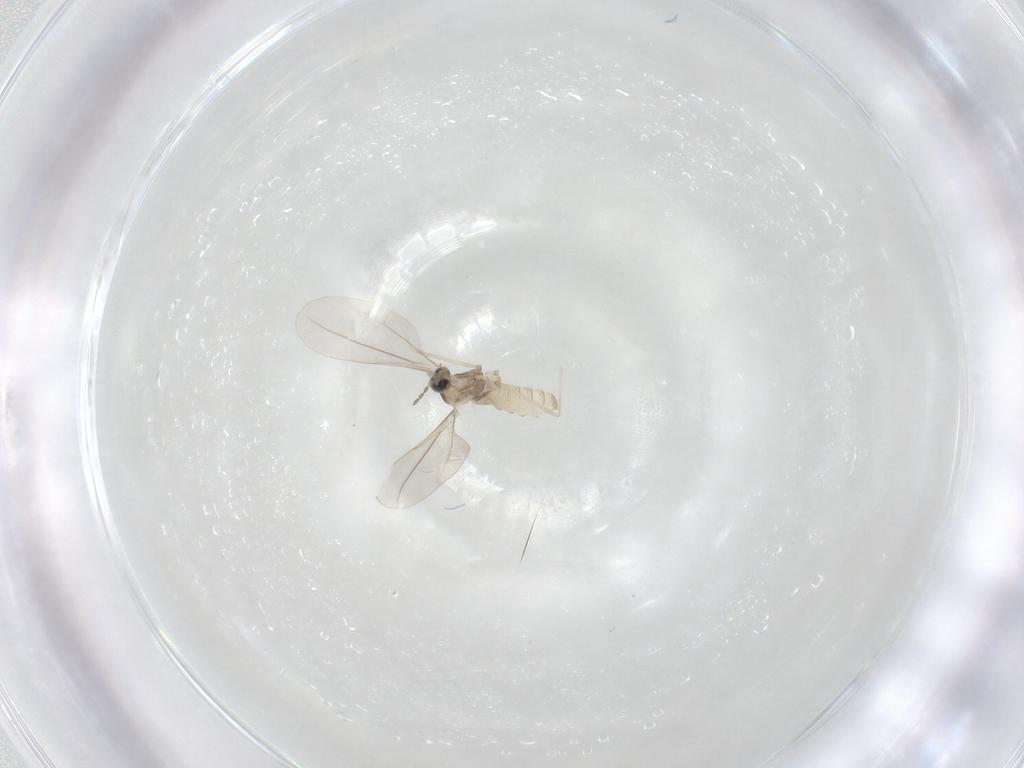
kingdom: Animalia
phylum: Arthropoda
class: Insecta
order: Diptera
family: Cecidomyiidae
